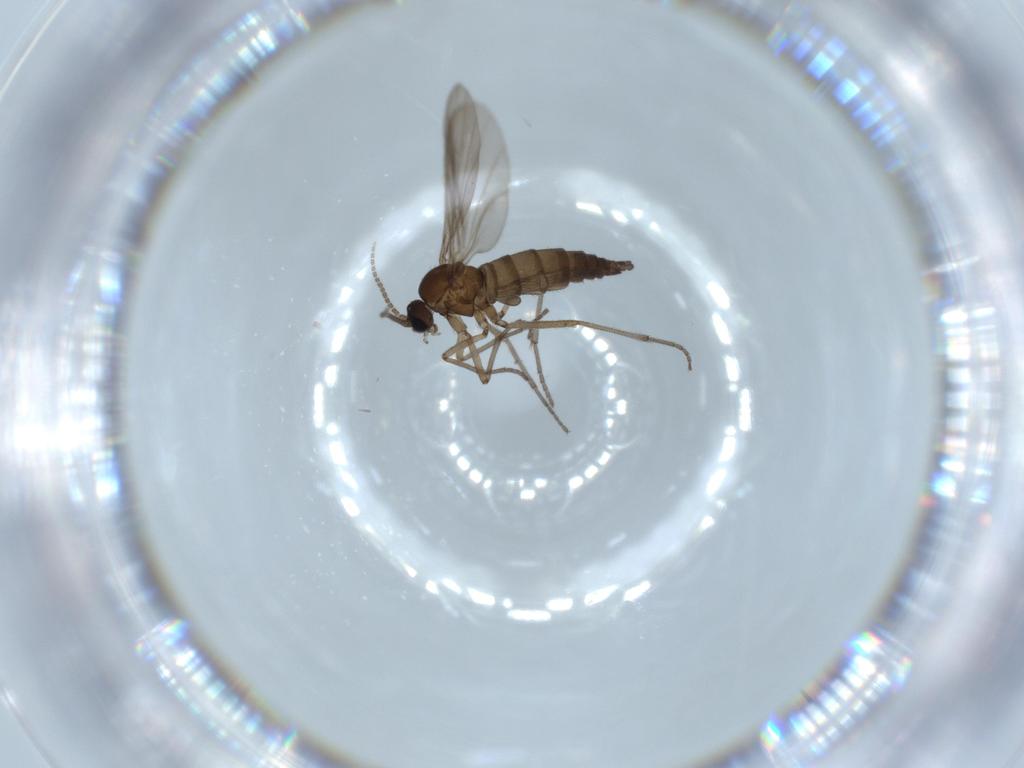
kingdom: Animalia
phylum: Arthropoda
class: Insecta
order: Diptera
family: Sciaridae
